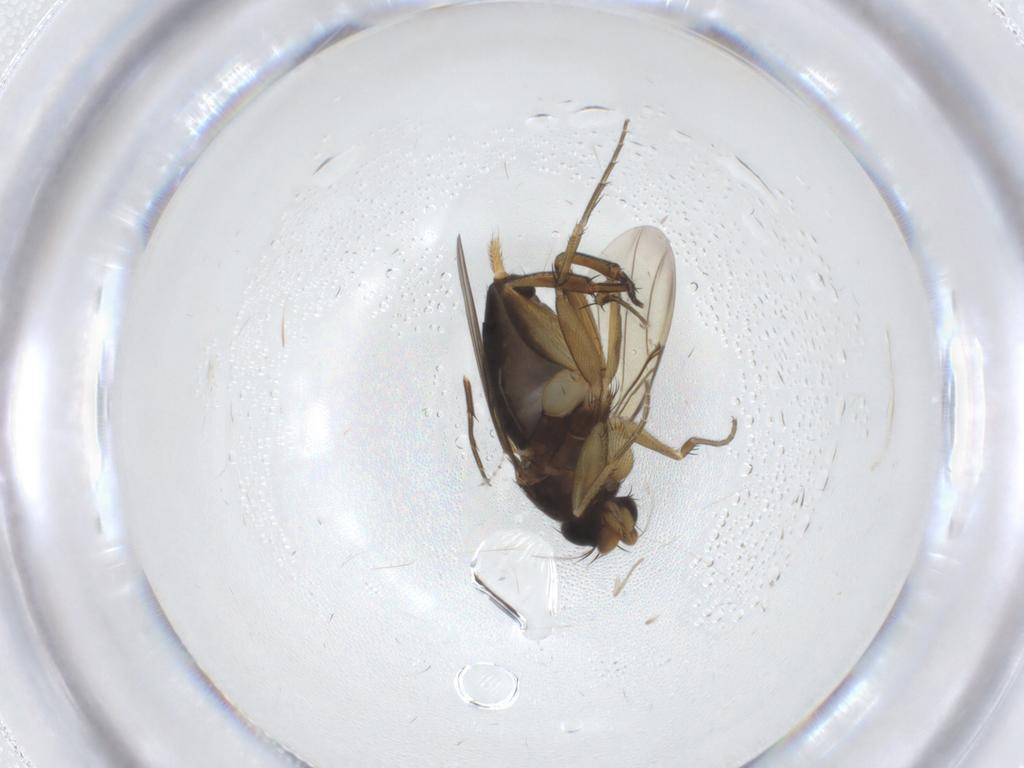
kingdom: Animalia
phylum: Arthropoda
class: Insecta
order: Diptera
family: Phoridae
